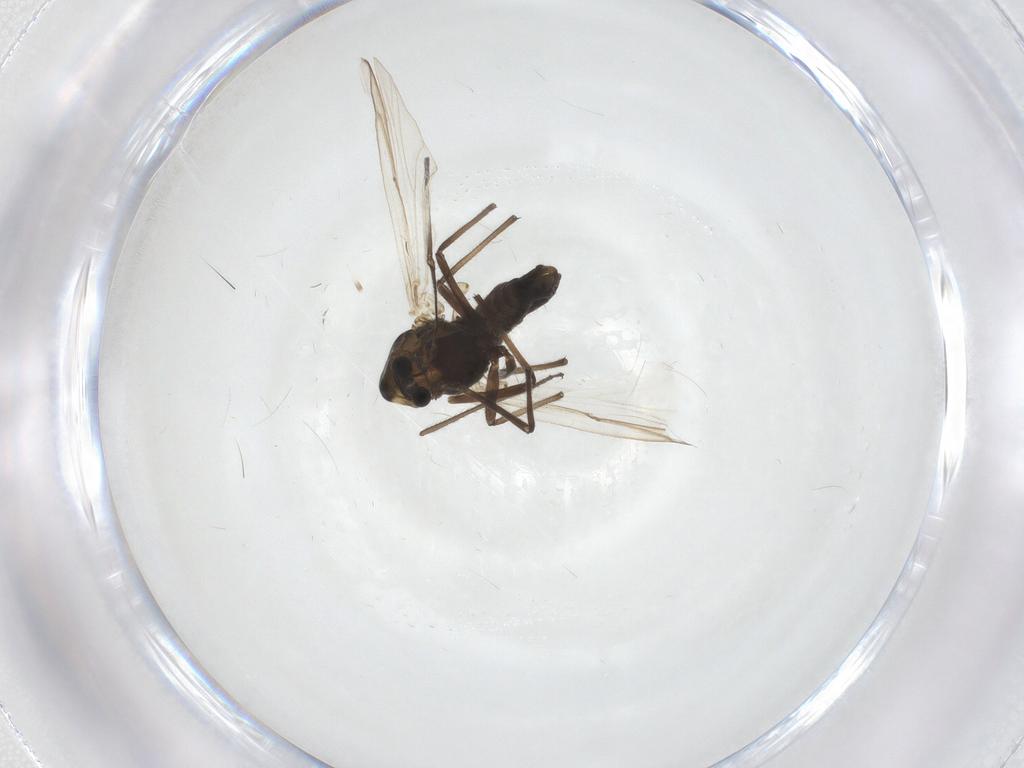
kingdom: Animalia
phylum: Arthropoda
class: Insecta
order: Diptera
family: Chironomidae
